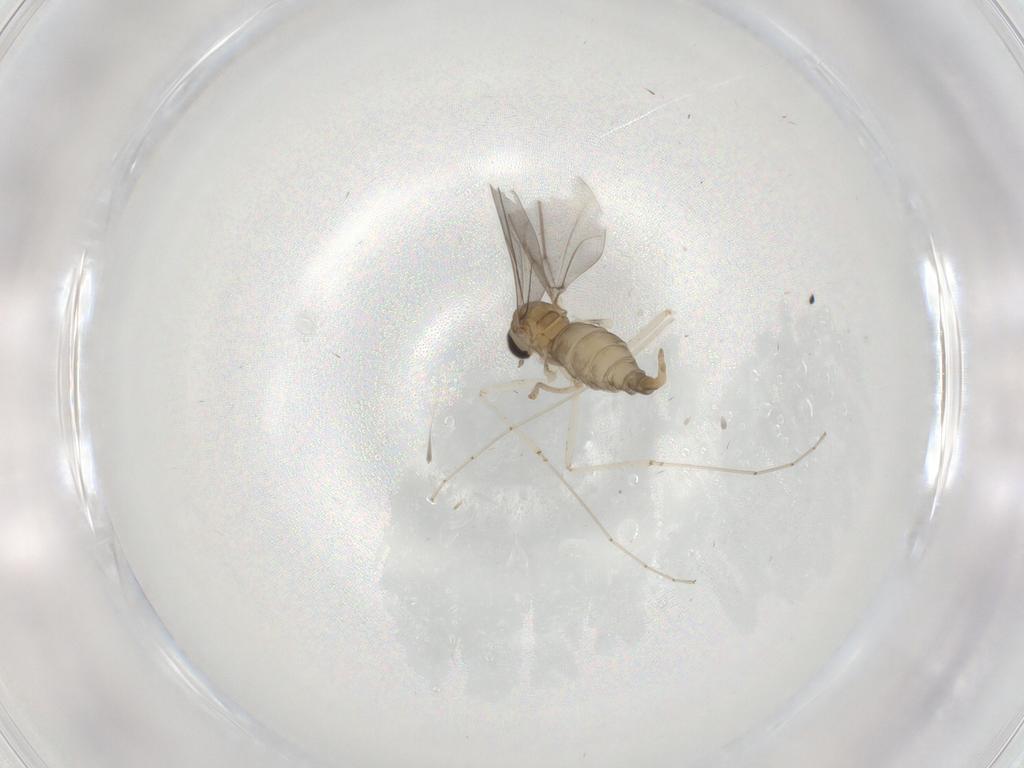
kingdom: Animalia
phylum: Arthropoda
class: Insecta
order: Diptera
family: Cecidomyiidae
